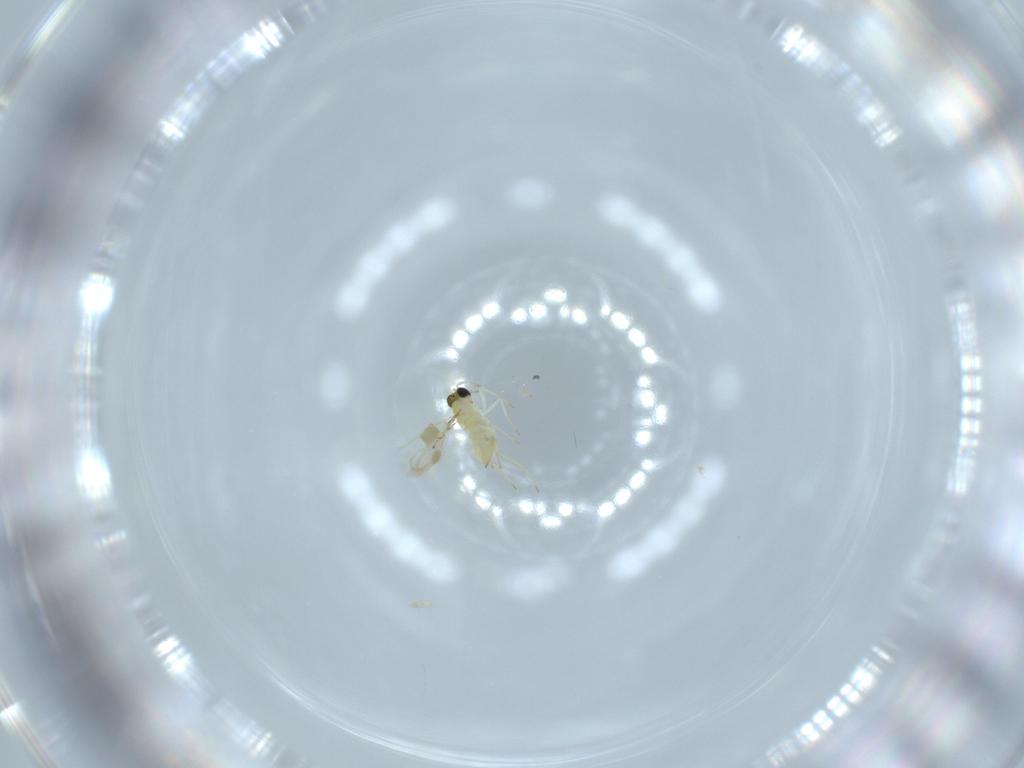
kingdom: Animalia
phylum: Arthropoda
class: Insecta
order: Hymenoptera
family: Trichogrammatidae
